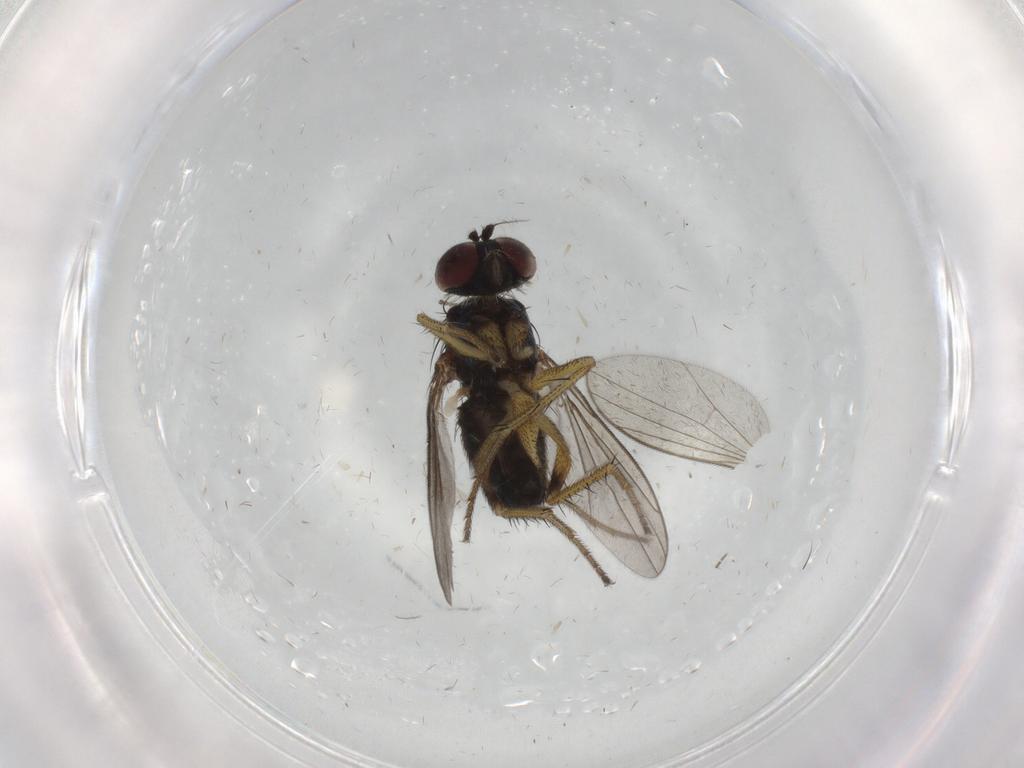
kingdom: Animalia
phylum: Arthropoda
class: Insecta
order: Diptera
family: Dolichopodidae
